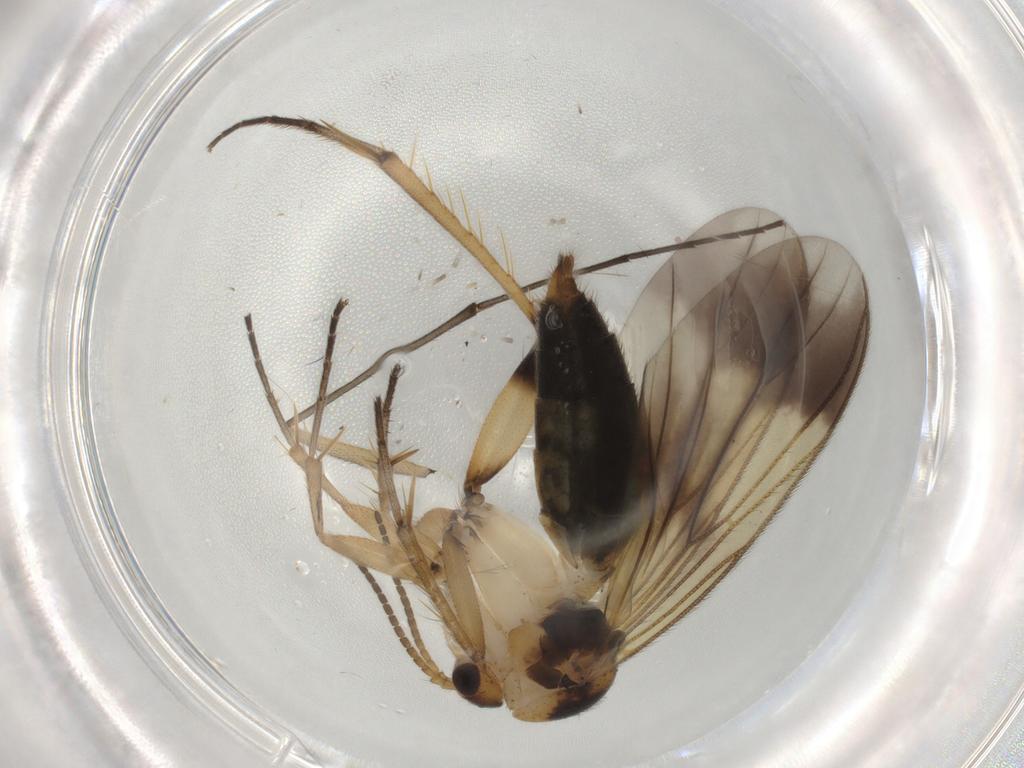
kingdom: Animalia
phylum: Arthropoda
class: Insecta
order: Diptera
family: Mycetophilidae
